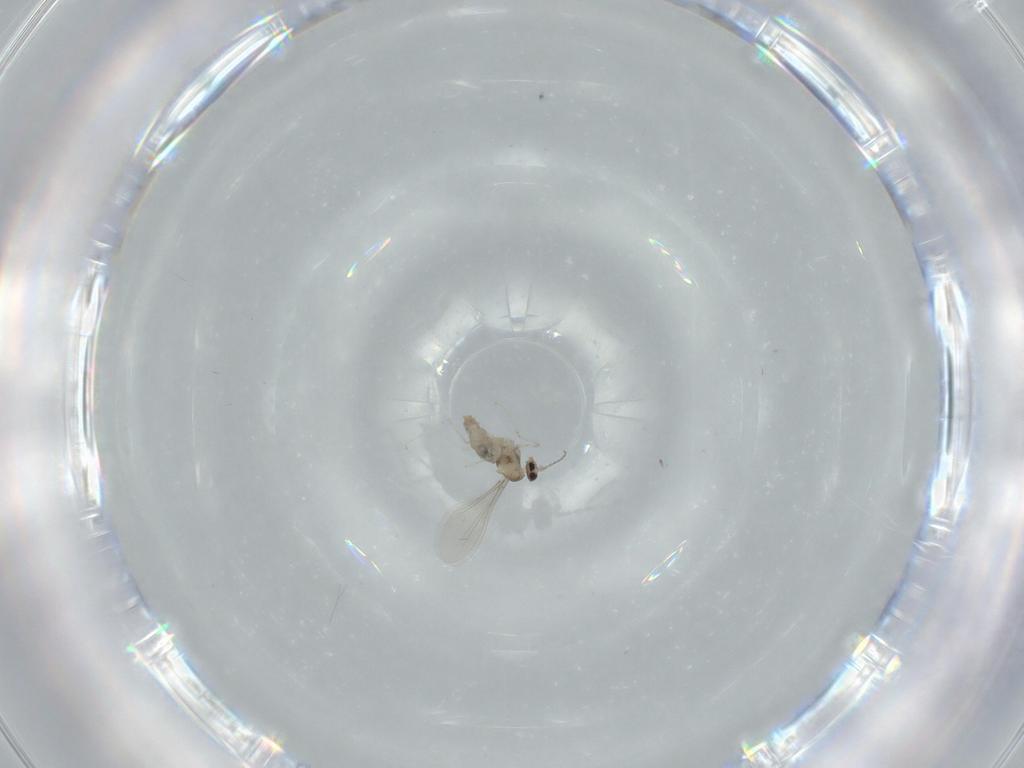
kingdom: Animalia
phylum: Arthropoda
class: Insecta
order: Diptera
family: Cecidomyiidae
